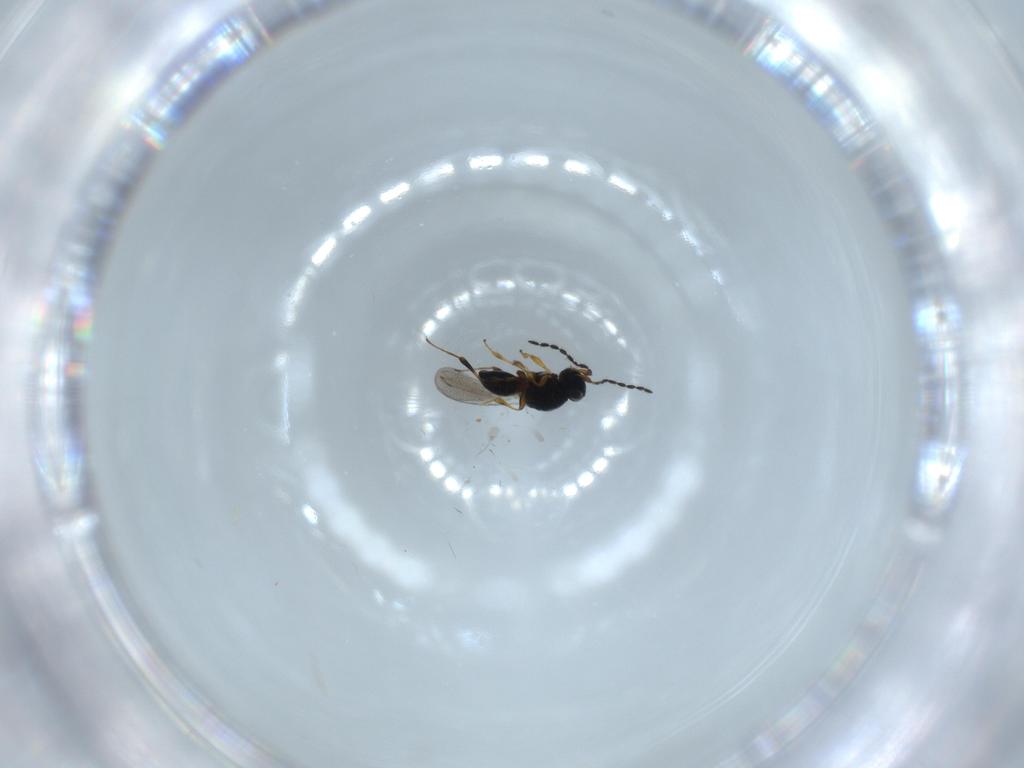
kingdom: Animalia
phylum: Arthropoda
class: Insecta
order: Hymenoptera
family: Platygastridae
